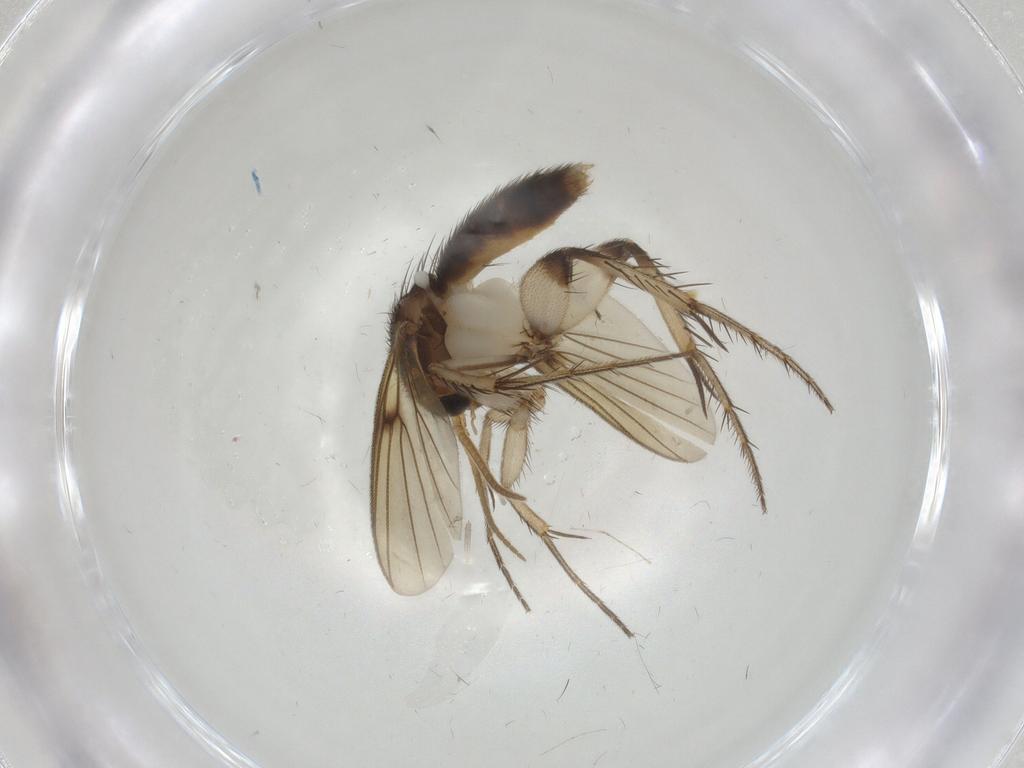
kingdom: Animalia
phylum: Arthropoda
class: Insecta
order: Diptera
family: Mycetophilidae
